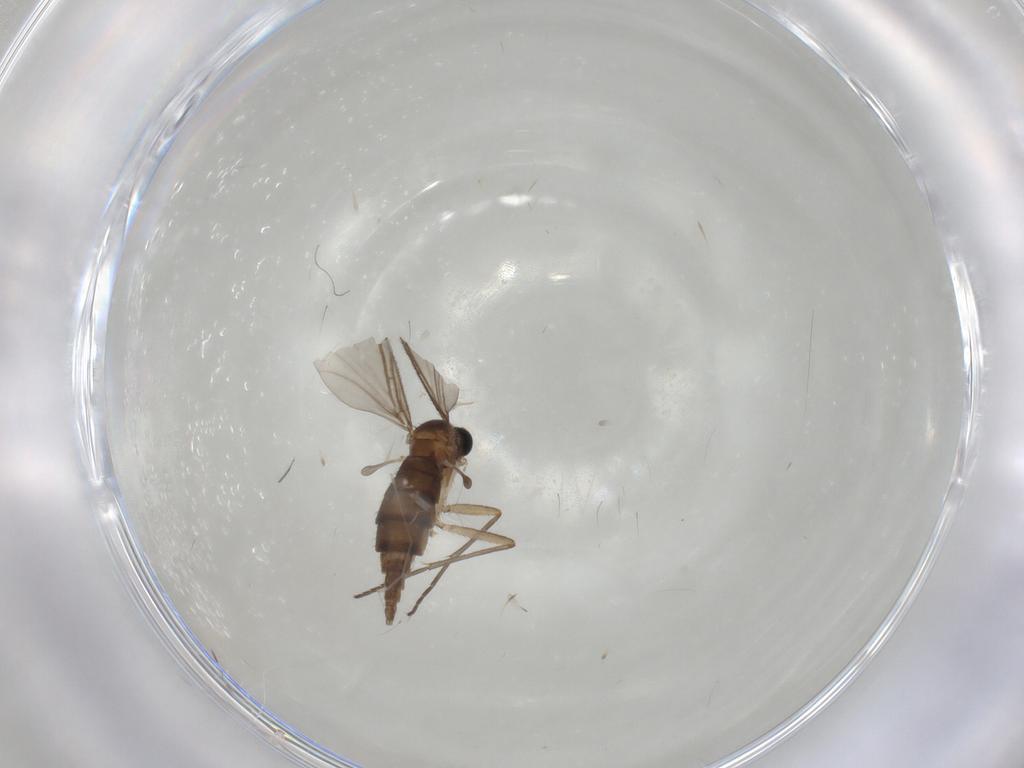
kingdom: Animalia
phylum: Arthropoda
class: Insecta
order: Diptera
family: Sciaridae
